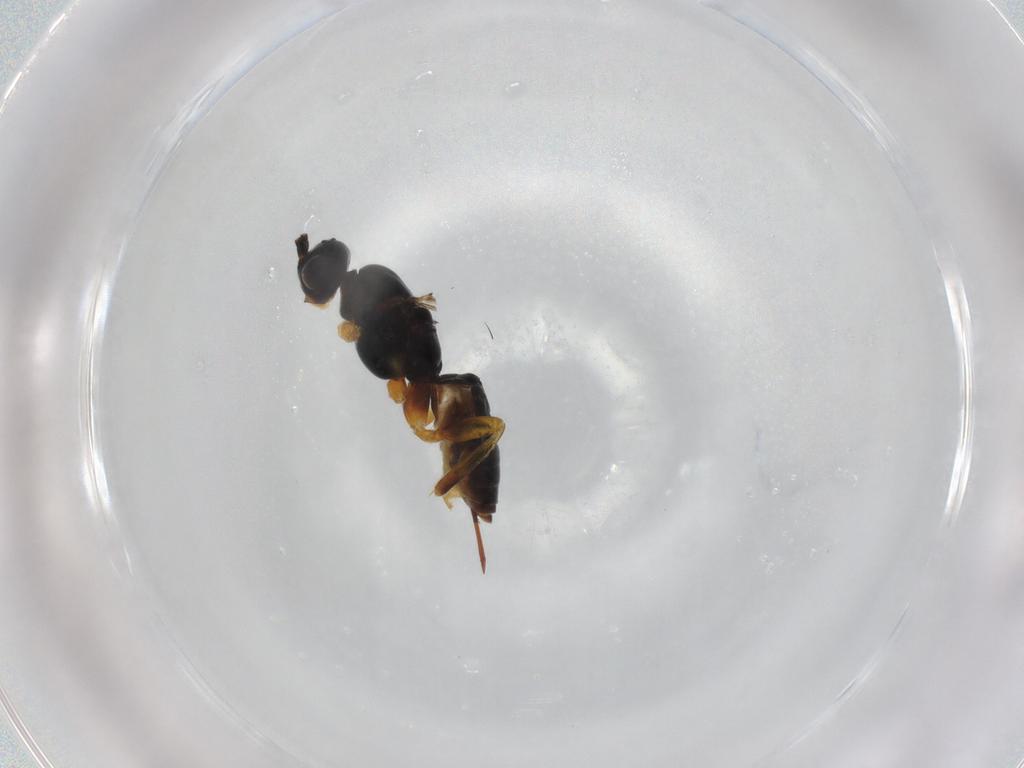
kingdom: Animalia
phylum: Arthropoda
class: Insecta
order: Hymenoptera
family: Braconidae
